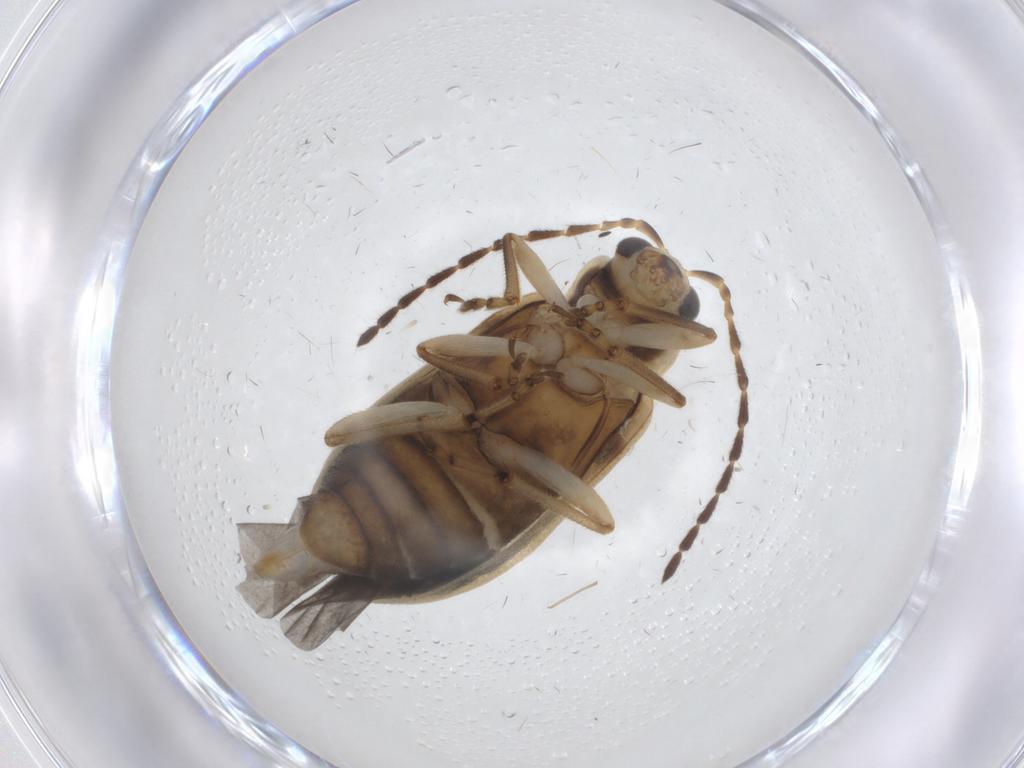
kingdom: Animalia
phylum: Arthropoda
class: Insecta
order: Coleoptera
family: Chrysomelidae
